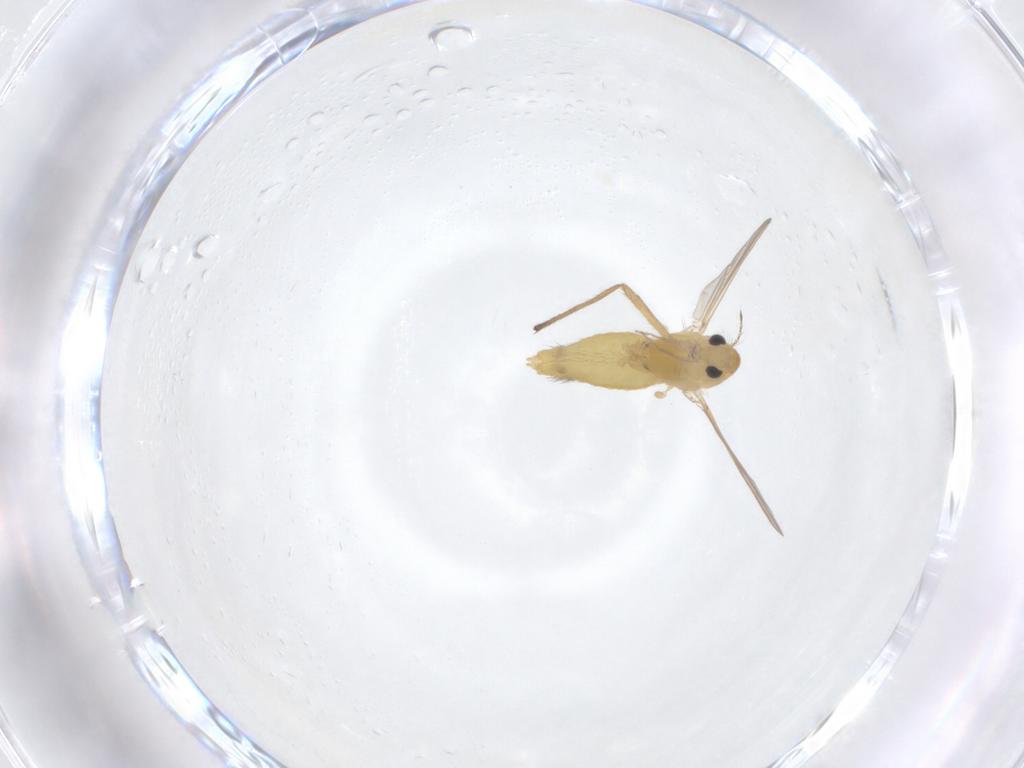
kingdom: Animalia
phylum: Arthropoda
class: Insecta
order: Diptera
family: Chironomidae
